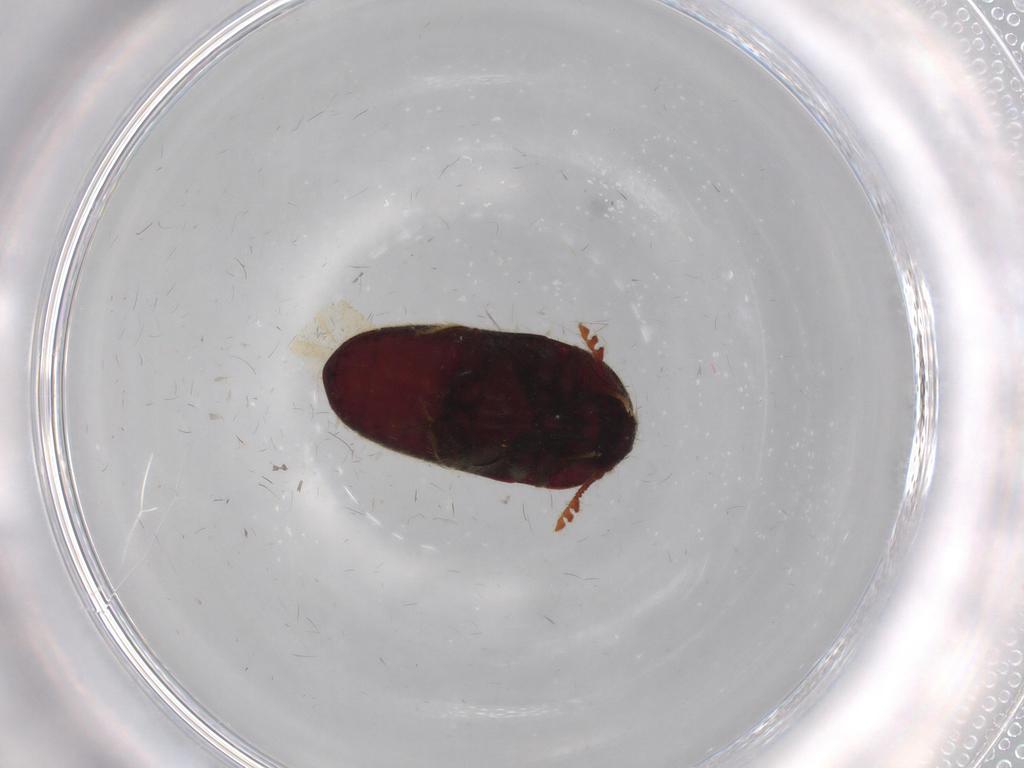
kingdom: Animalia
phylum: Arthropoda
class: Insecta
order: Coleoptera
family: Throscidae
